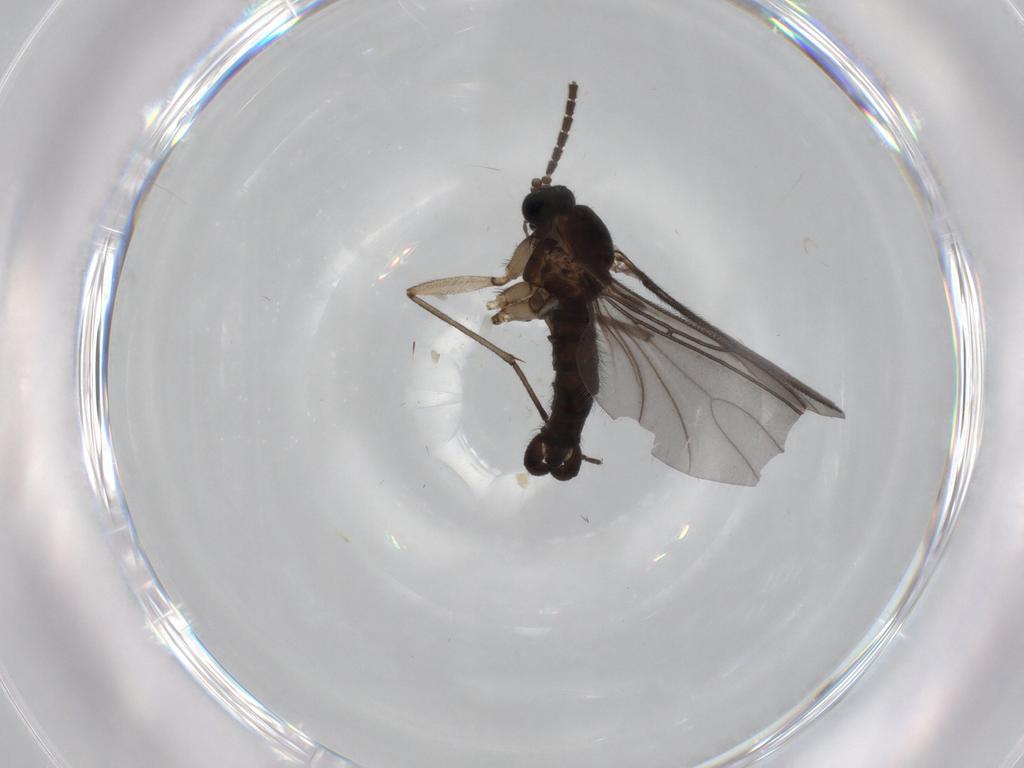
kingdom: Animalia
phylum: Arthropoda
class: Insecta
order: Diptera
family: Sciaridae
